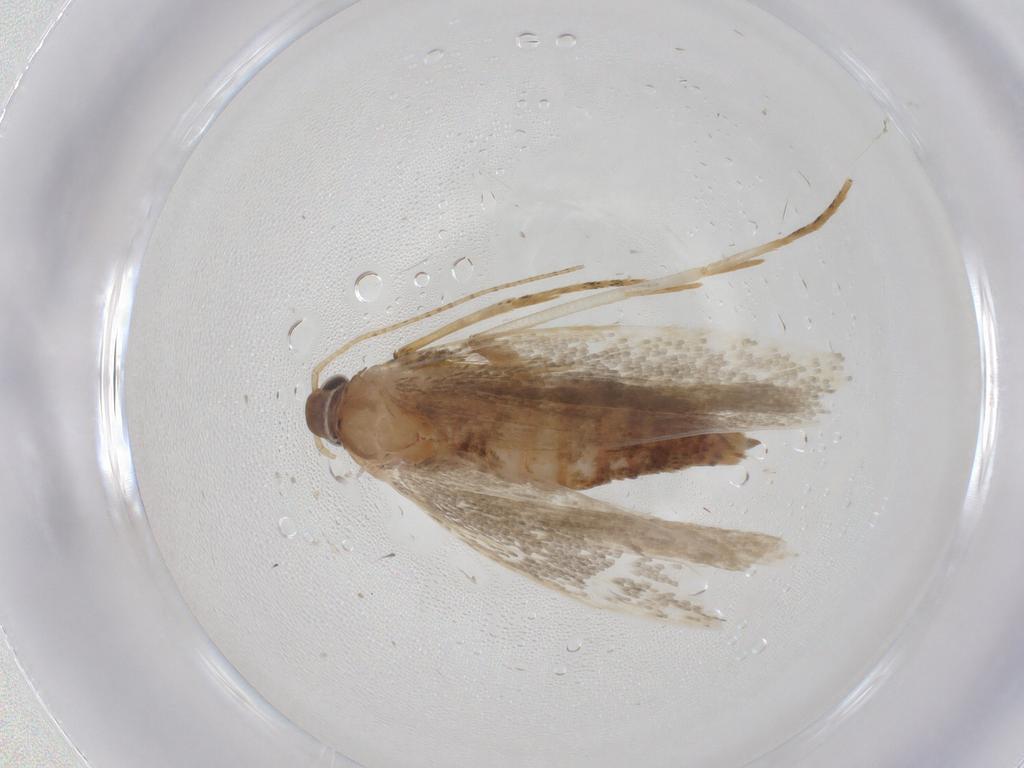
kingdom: Animalia
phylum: Arthropoda
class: Insecta
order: Lepidoptera
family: Crambidae
